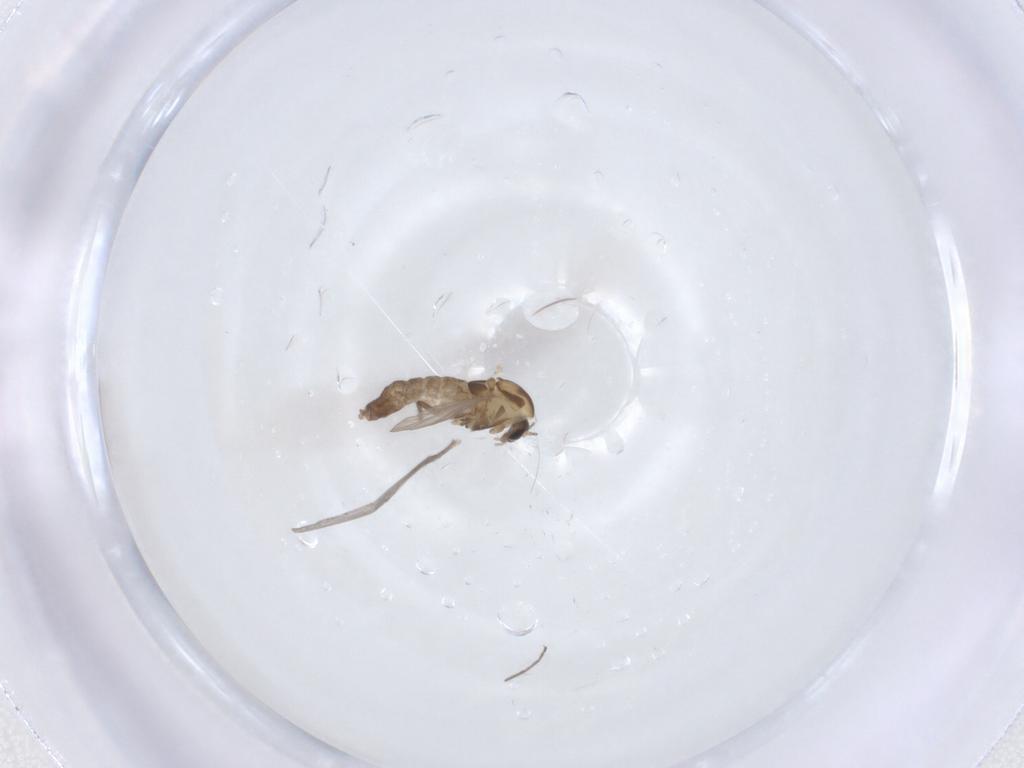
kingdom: Animalia
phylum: Arthropoda
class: Insecta
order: Diptera
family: Chironomidae
